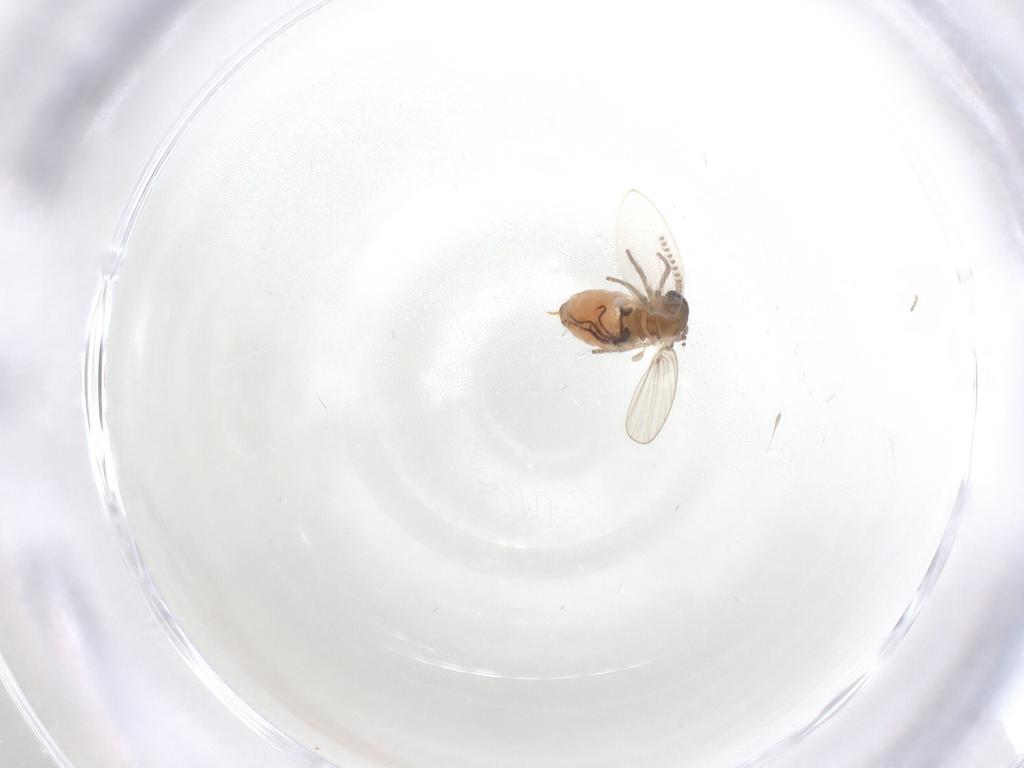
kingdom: Animalia
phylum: Arthropoda
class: Insecta
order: Diptera
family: Psychodidae
